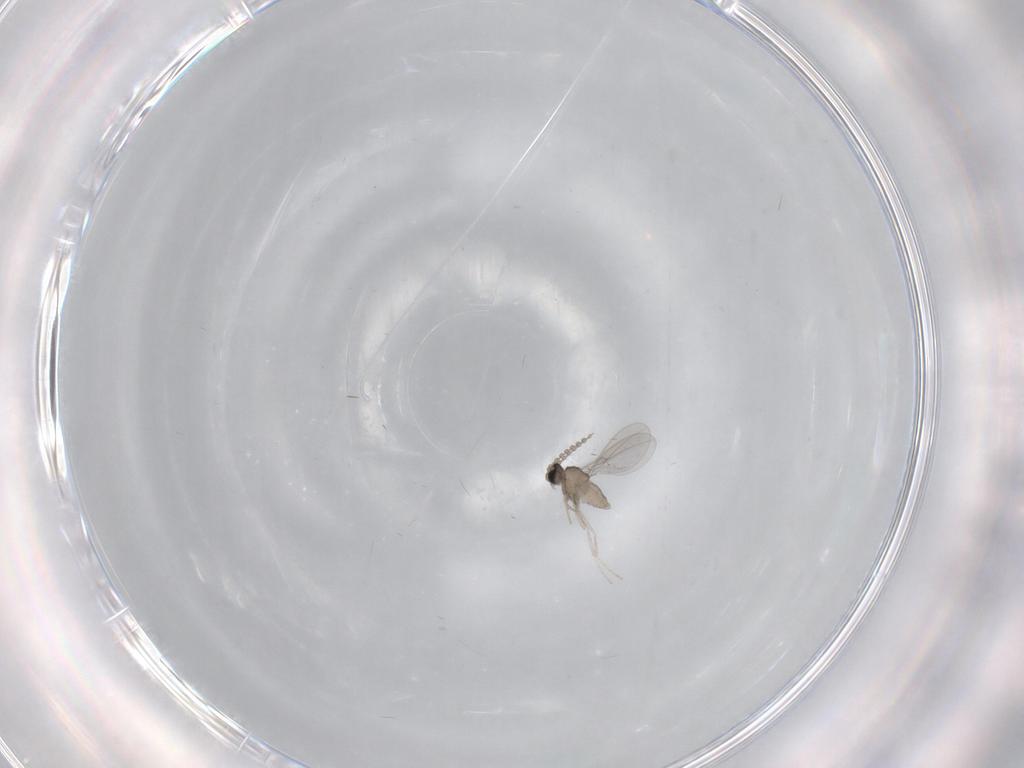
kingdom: Animalia
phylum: Arthropoda
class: Insecta
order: Diptera
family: Cecidomyiidae
